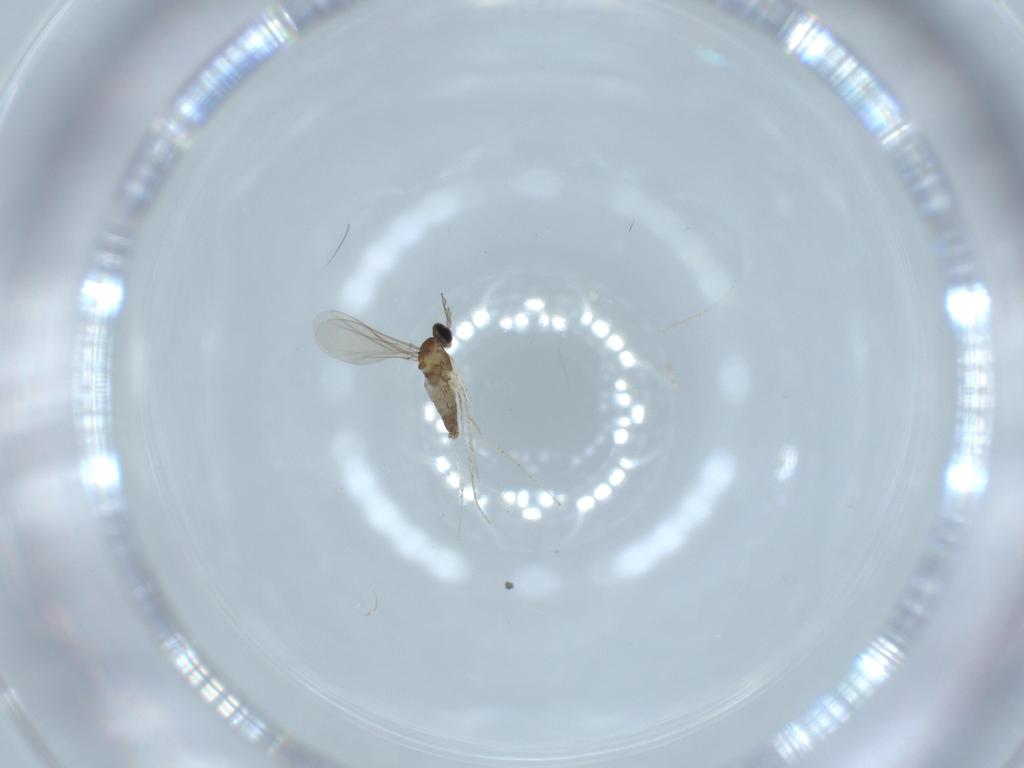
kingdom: Animalia
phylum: Arthropoda
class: Insecta
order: Diptera
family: Cecidomyiidae
